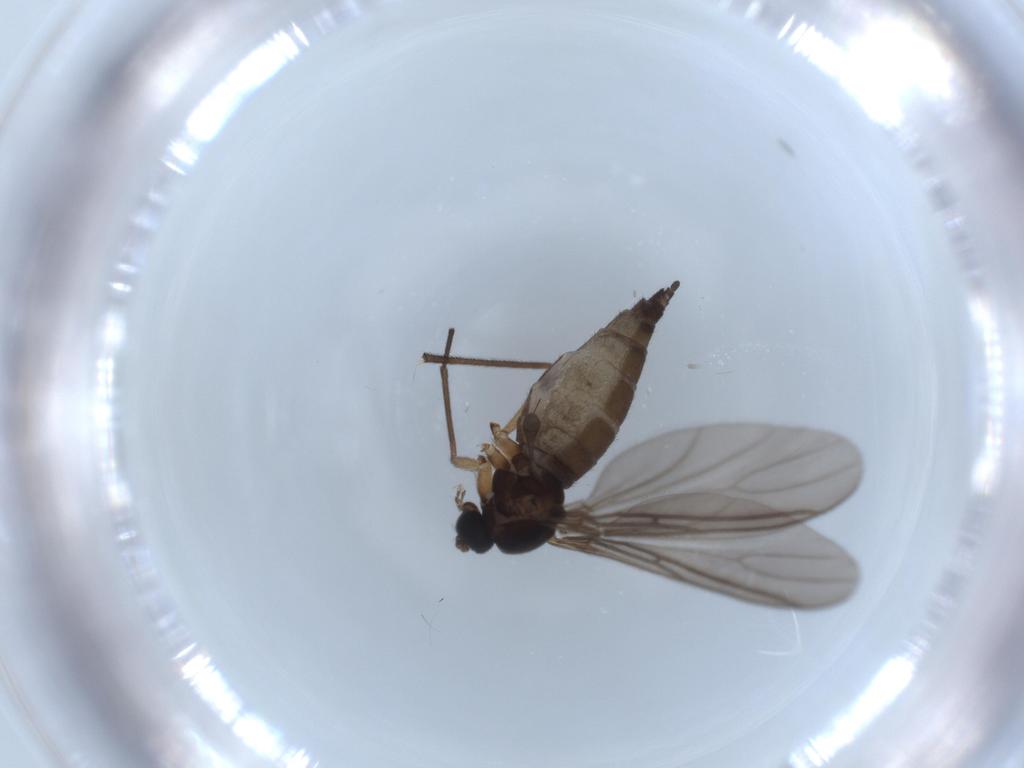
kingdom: Animalia
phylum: Arthropoda
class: Insecta
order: Diptera
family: Sciaridae
